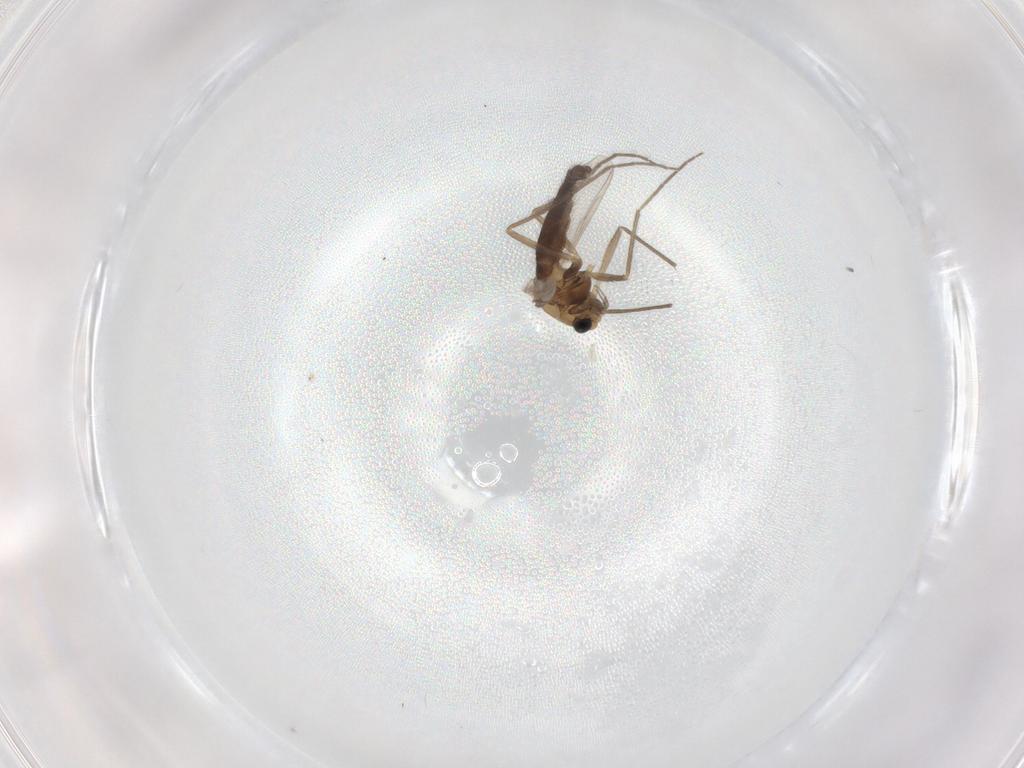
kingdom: Animalia
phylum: Arthropoda
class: Insecta
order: Diptera
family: Chironomidae
